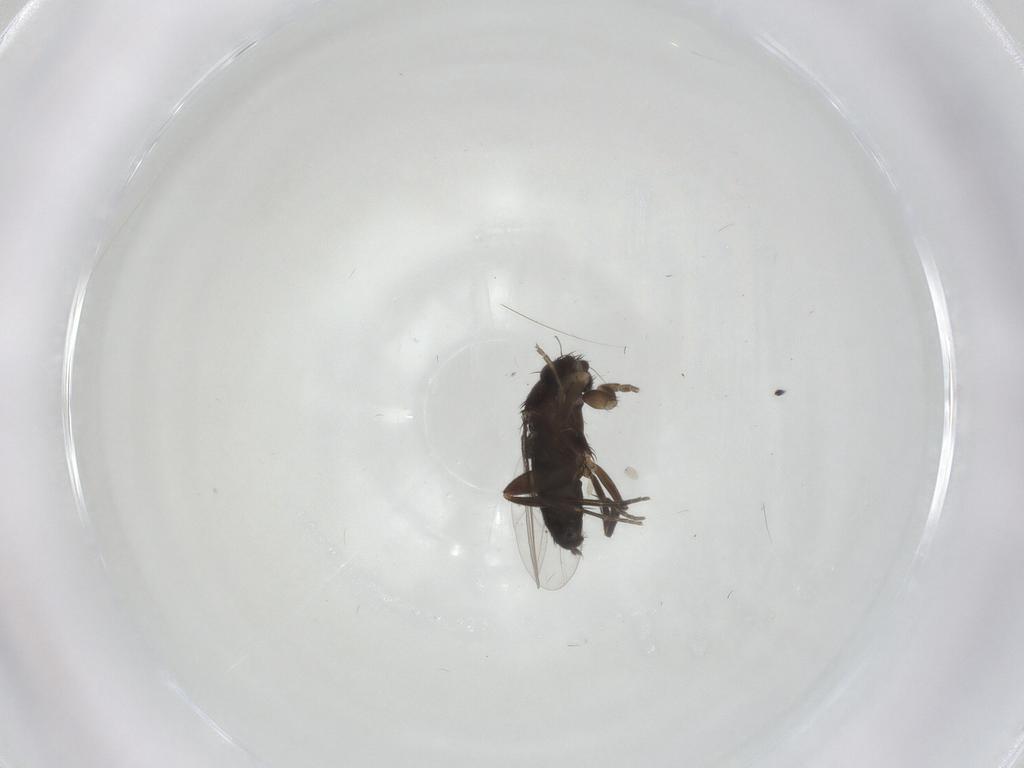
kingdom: Animalia
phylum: Arthropoda
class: Insecta
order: Diptera
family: Phoridae
